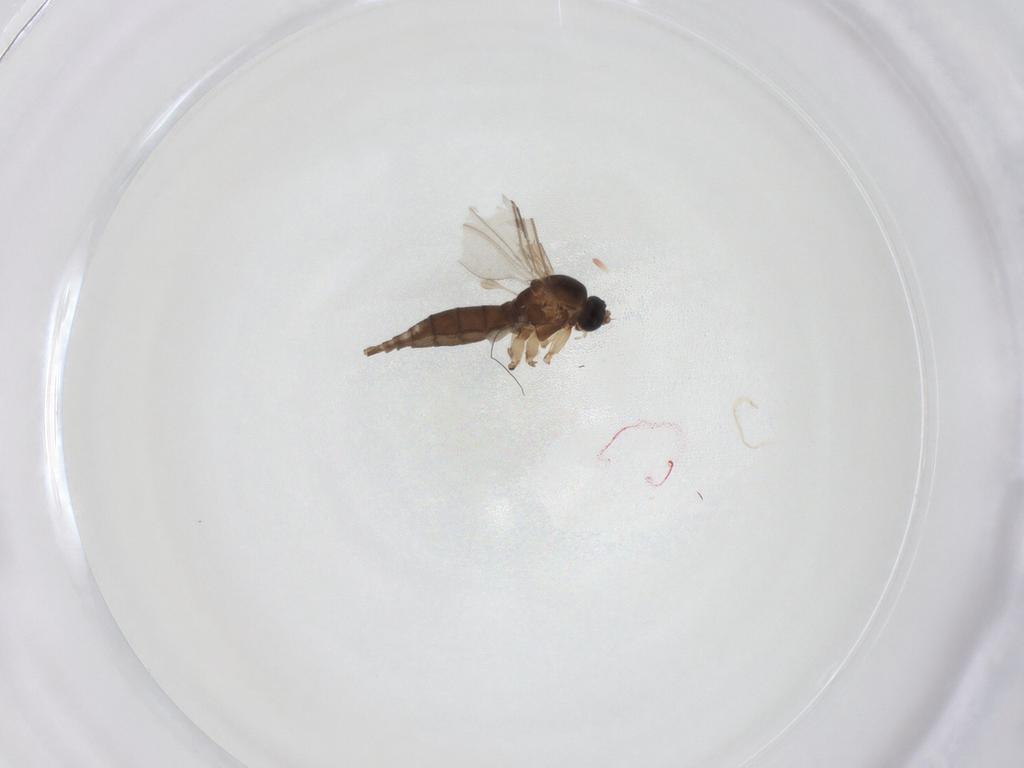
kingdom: Animalia
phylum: Arthropoda
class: Insecta
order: Diptera
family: Sciaridae
